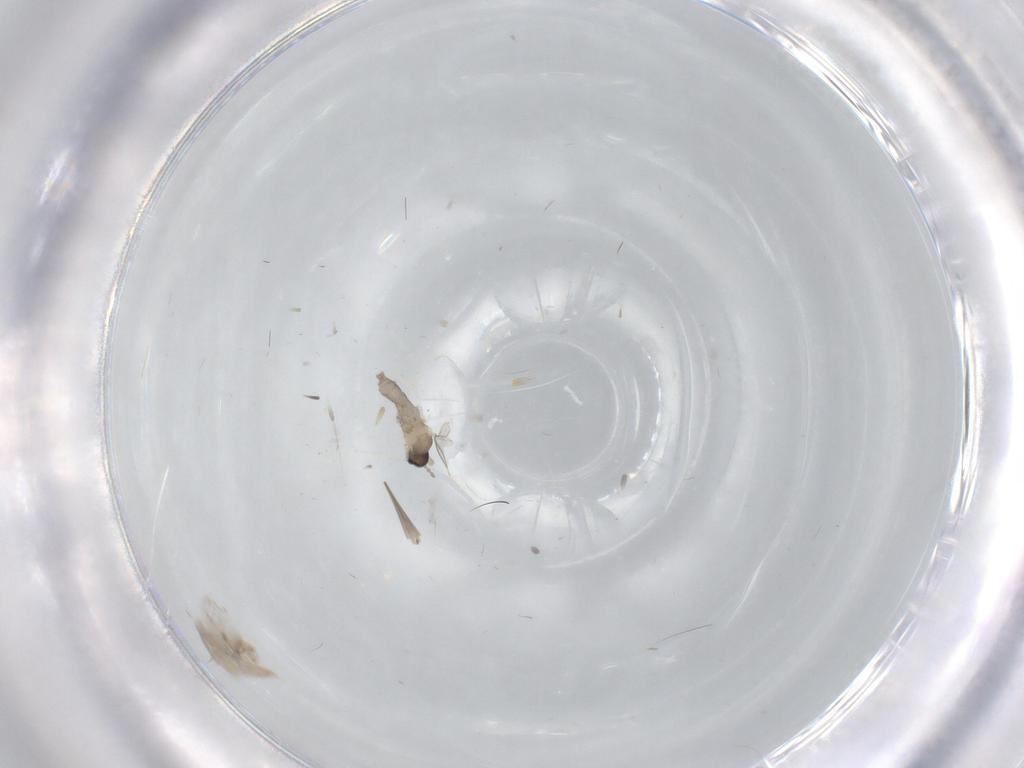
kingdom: Animalia
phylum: Arthropoda
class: Insecta
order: Diptera
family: Cecidomyiidae
